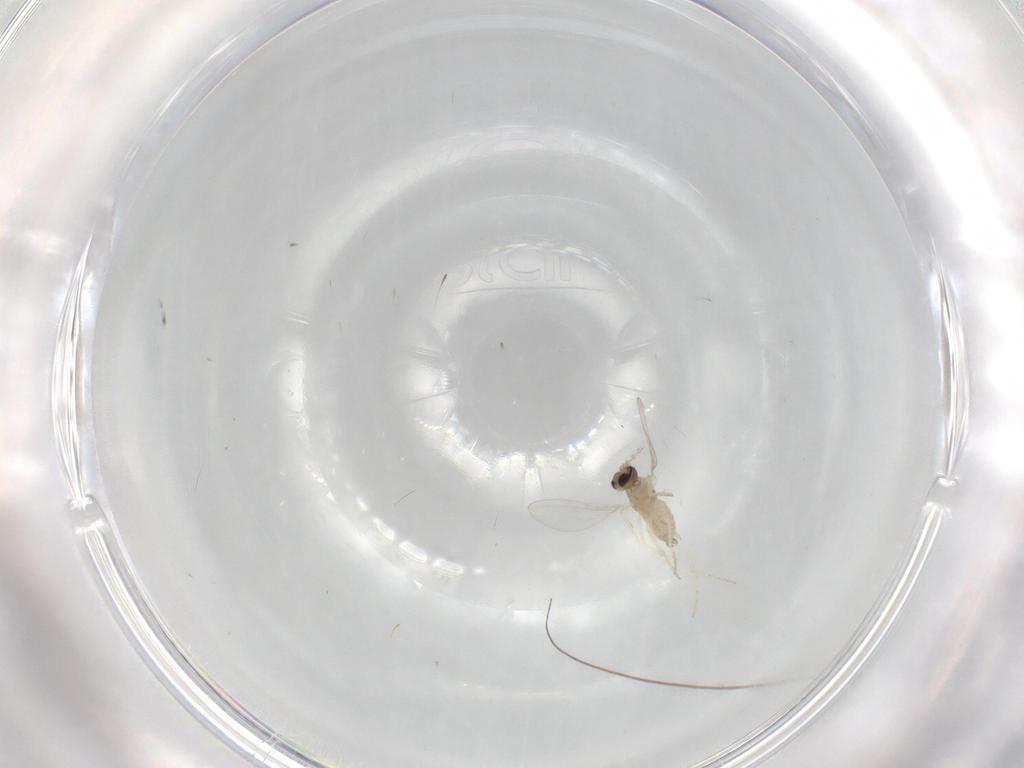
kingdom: Animalia
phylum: Arthropoda
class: Insecta
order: Diptera
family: Cecidomyiidae
